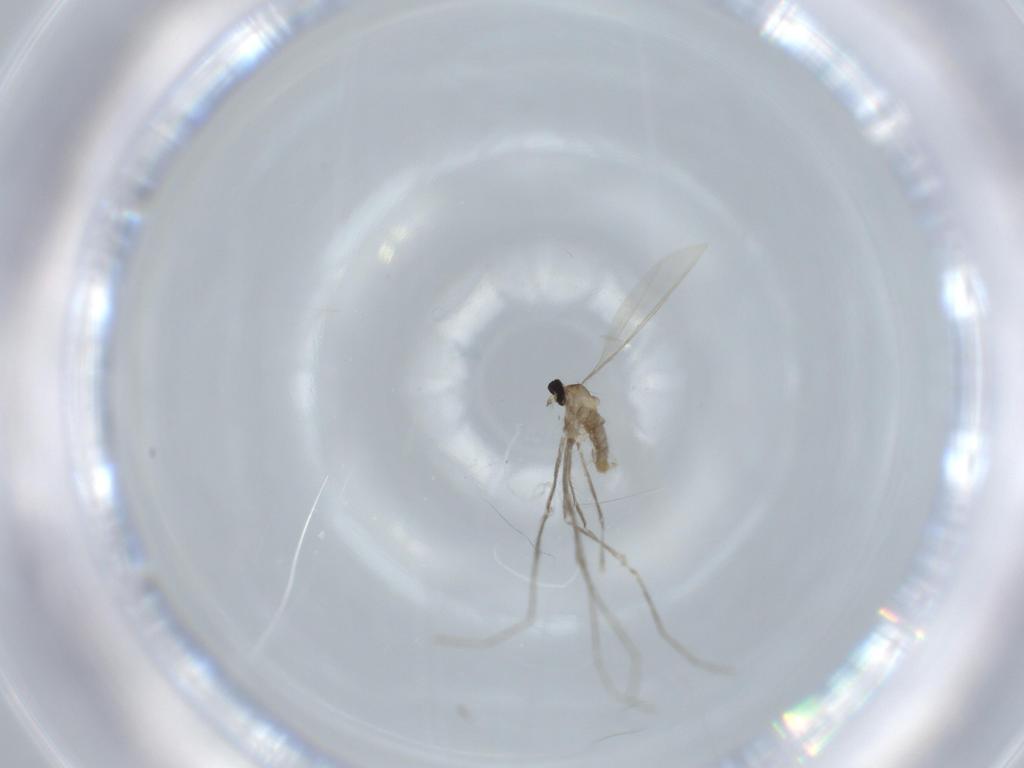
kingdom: Animalia
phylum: Arthropoda
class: Insecta
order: Diptera
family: Cecidomyiidae
